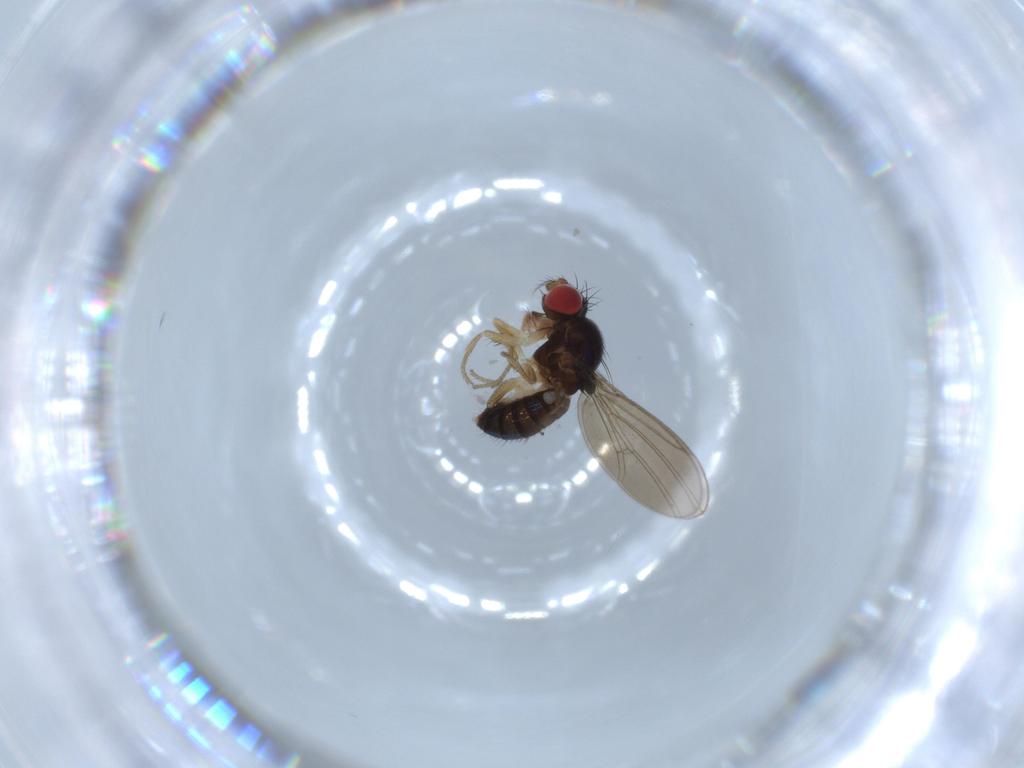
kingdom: Animalia
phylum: Arthropoda
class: Insecta
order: Diptera
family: Drosophilidae
